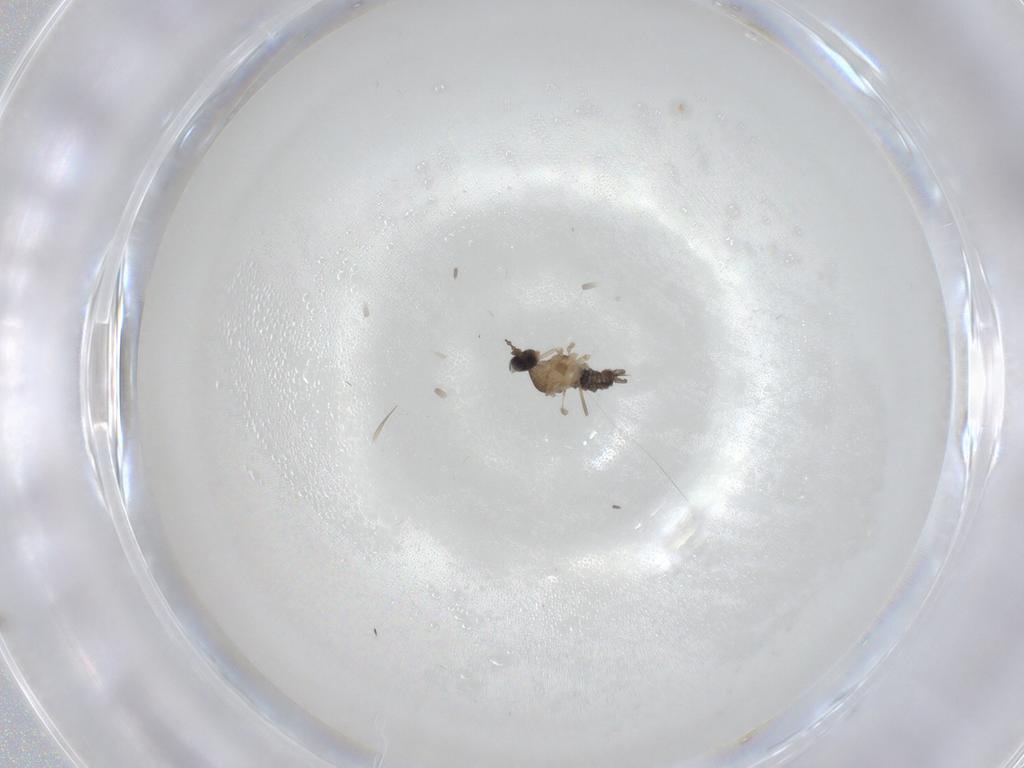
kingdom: Animalia
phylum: Arthropoda
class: Insecta
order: Diptera
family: Cecidomyiidae
